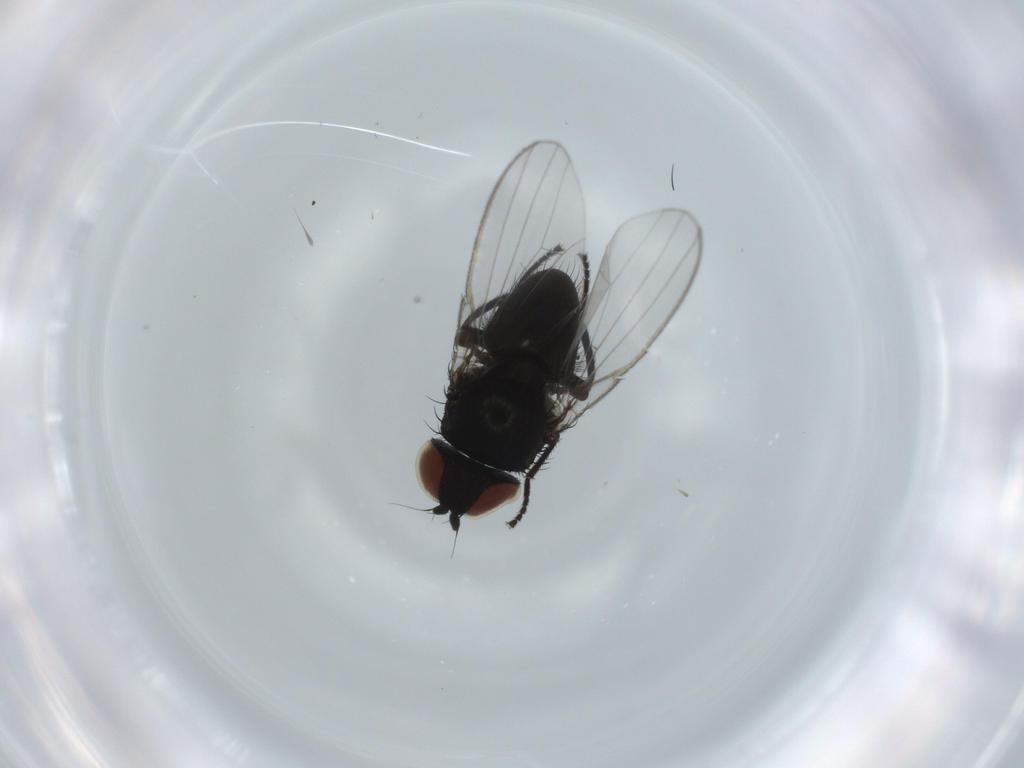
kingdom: Animalia
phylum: Arthropoda
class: Insecta
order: Diptera
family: Milichiidae
